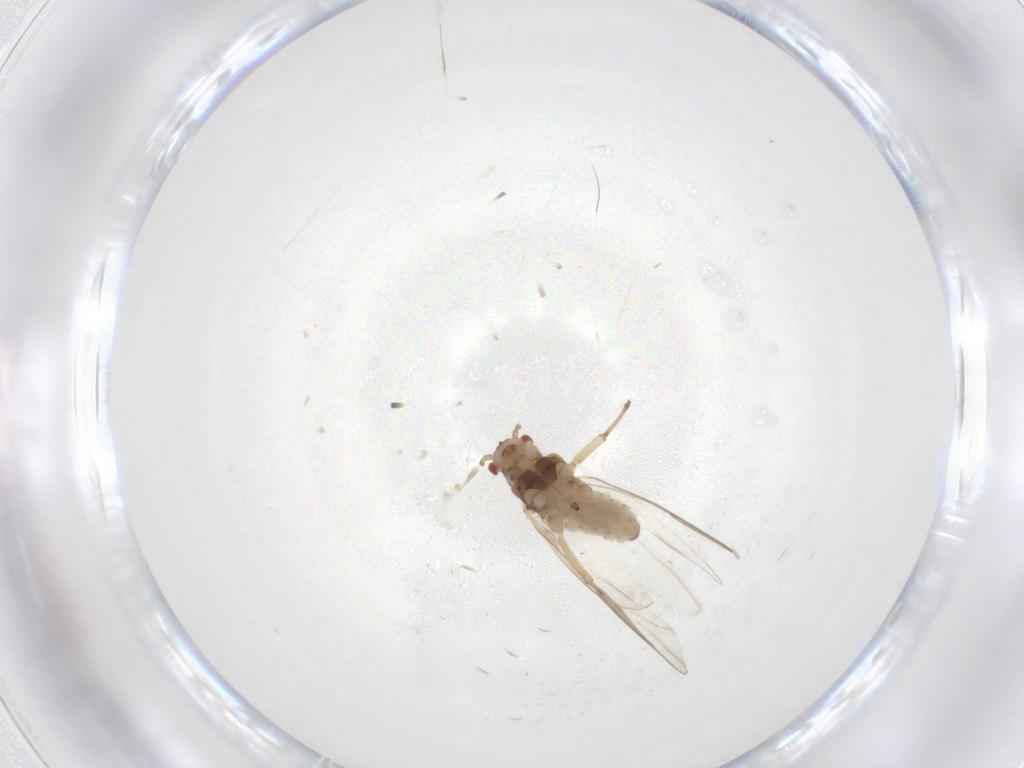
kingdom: Animalia
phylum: Arthropoda
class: Insecta
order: Hemiptera
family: Lachnidae
